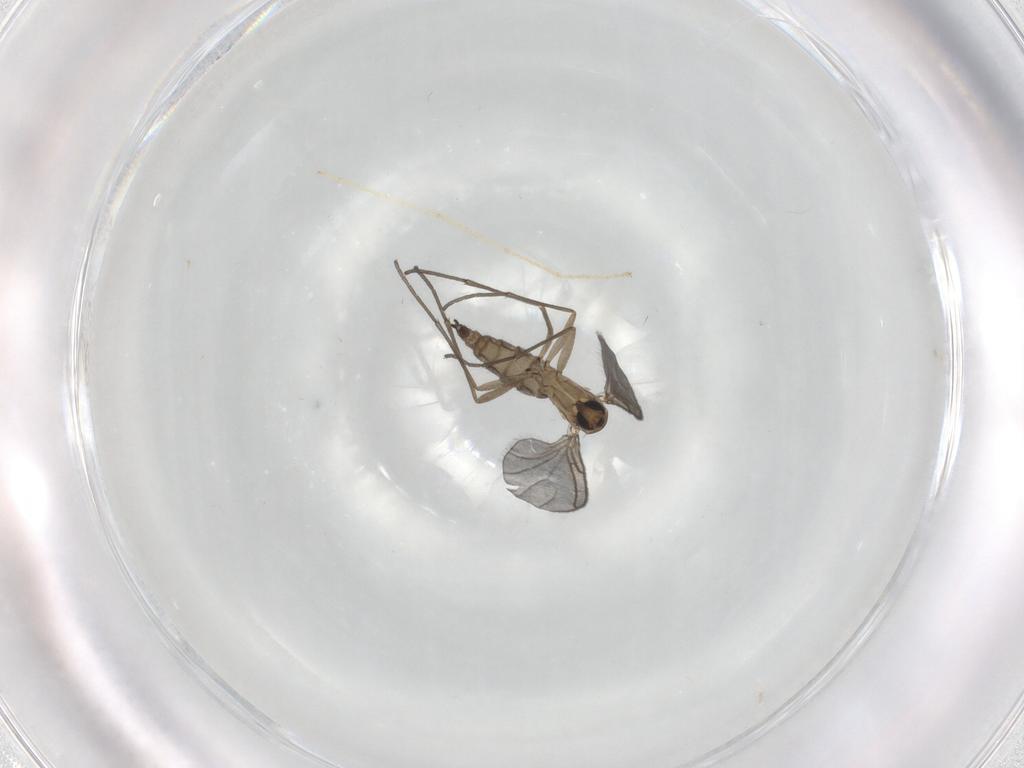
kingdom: Animalia
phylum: Arthropoda
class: Insecta
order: Diptera
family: Sciaridae
